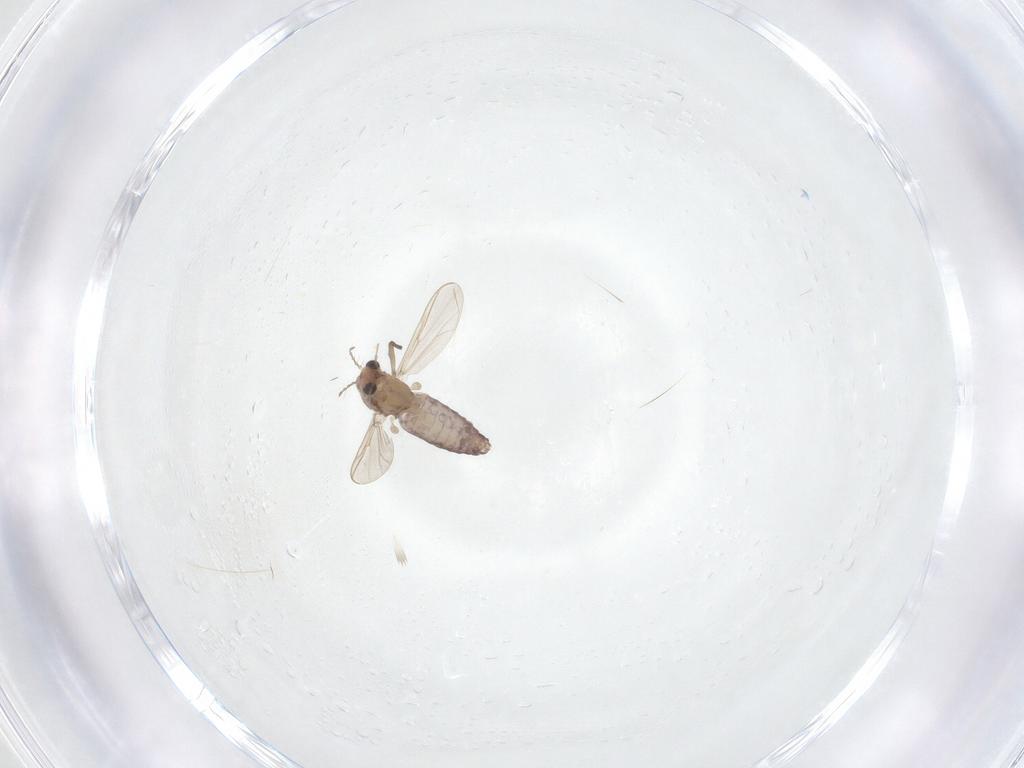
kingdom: Animalia
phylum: Arthropoda
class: Insecta
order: Diptera
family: Chironomidae
